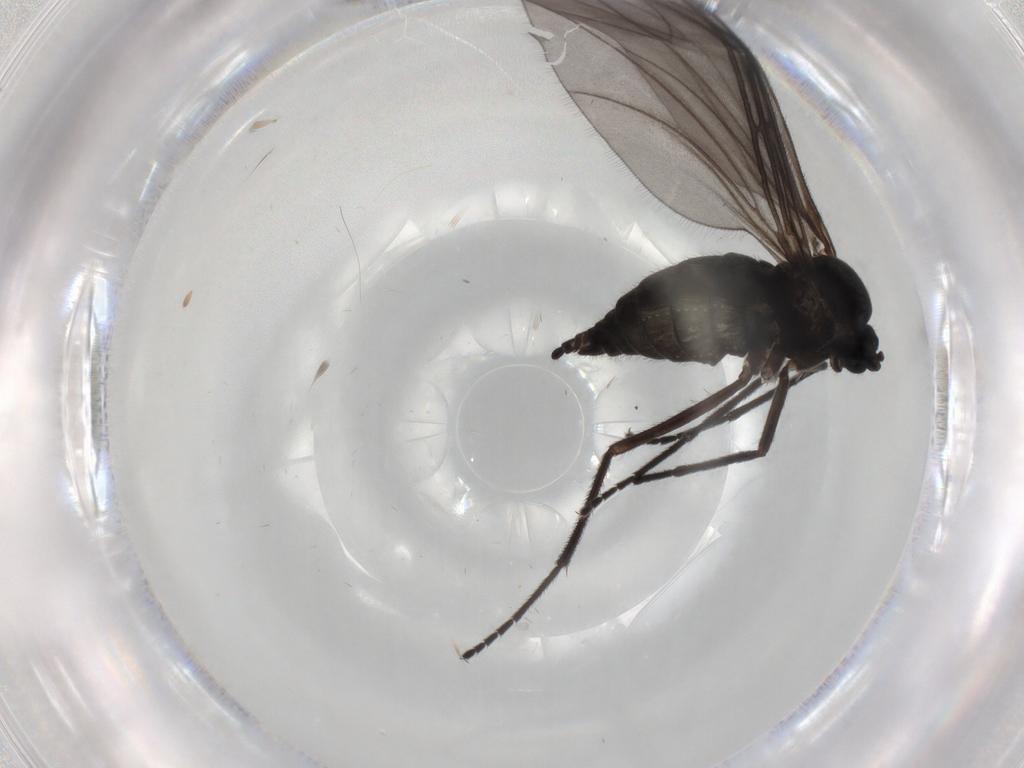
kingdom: Animalia
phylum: Arthropoda
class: Insecta
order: Diptera
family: Sciaridae
